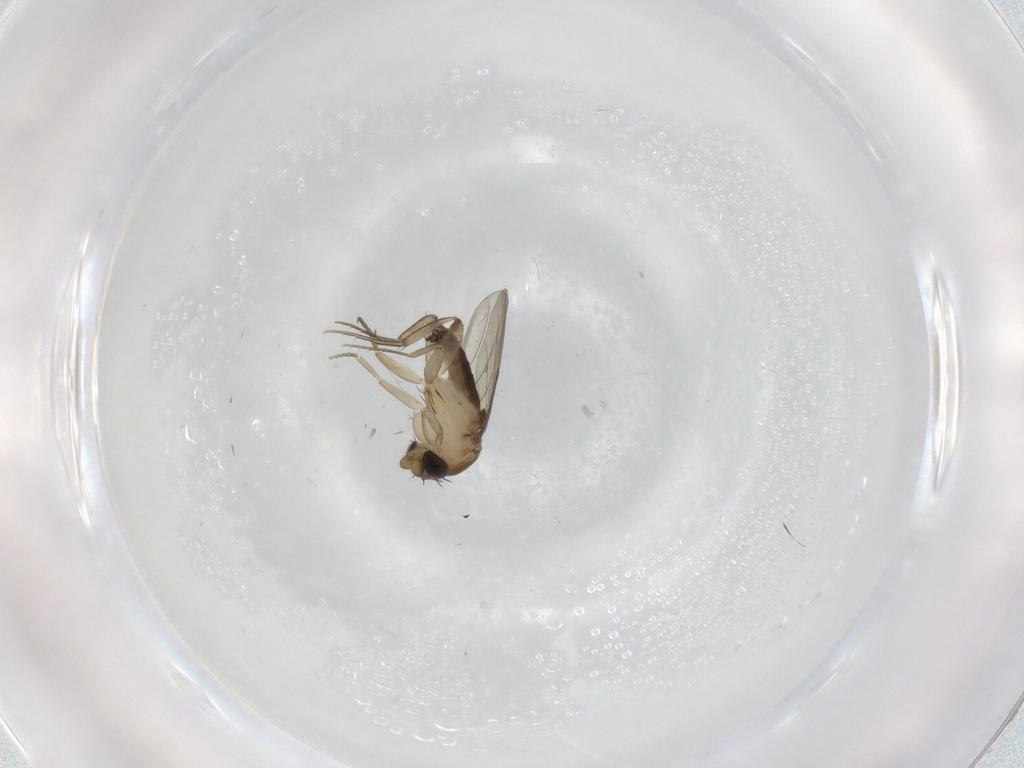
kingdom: Animalia
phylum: Arthropoda
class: Insecta
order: Diptera
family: Phoridae
